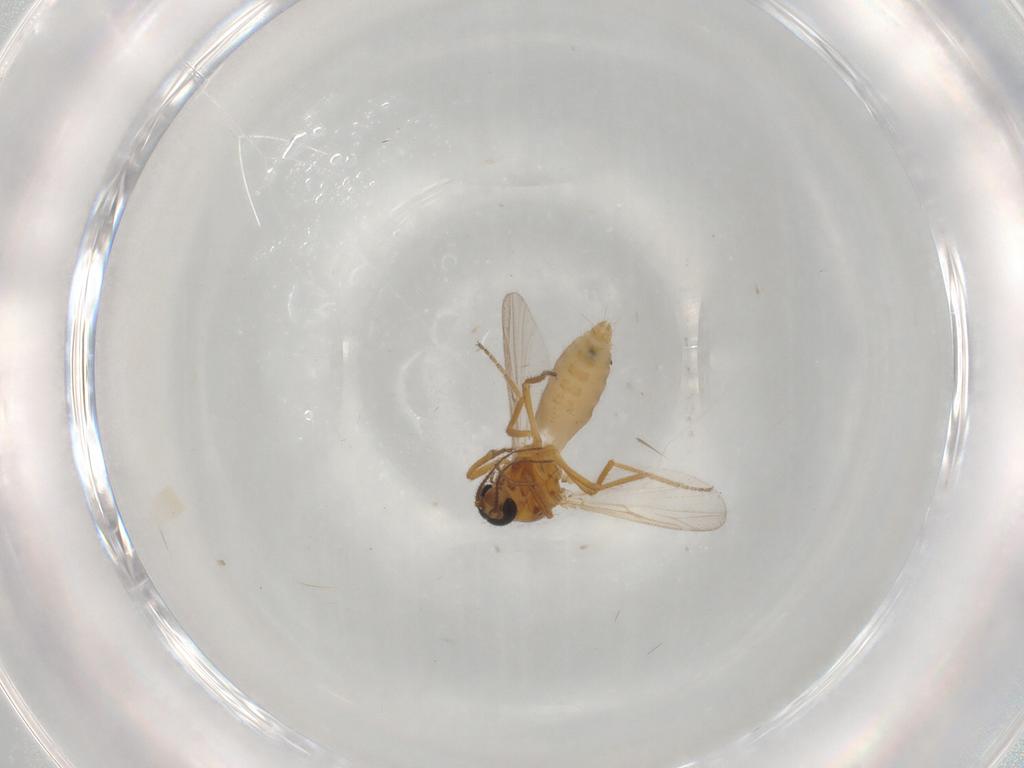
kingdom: Animalia
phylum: Arthropoda
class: Insecta
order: Diptera
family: Ceratopogonidae
